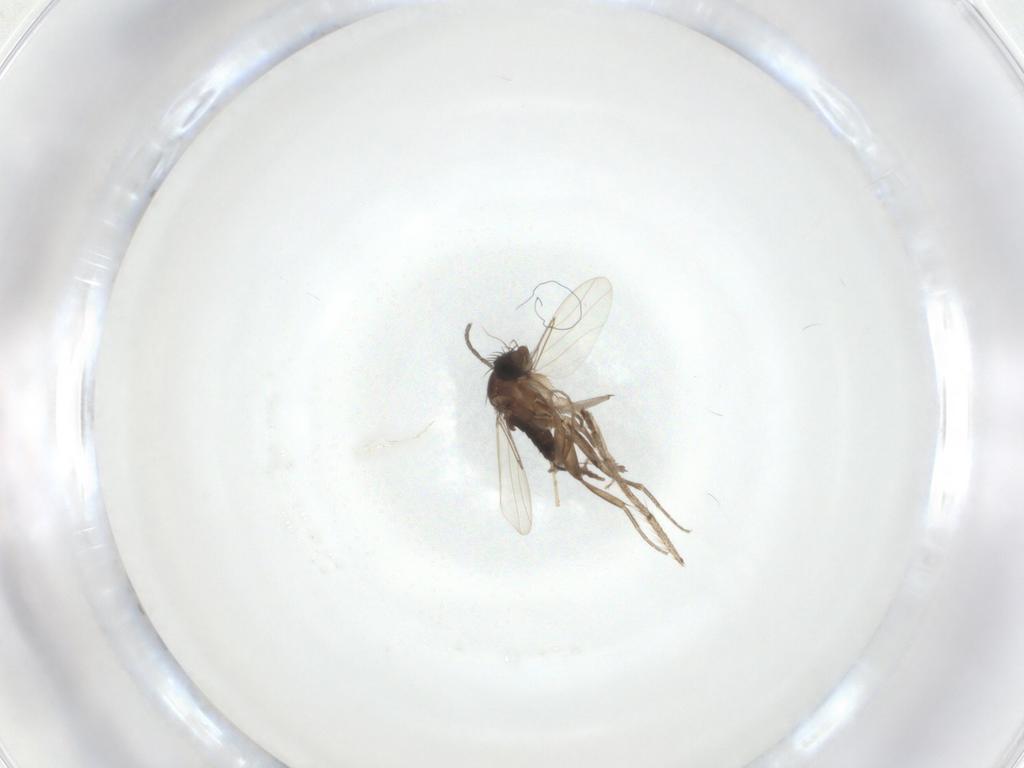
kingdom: Animalia
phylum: Arthropoda
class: Insecta
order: Diptera
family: Phoridae
